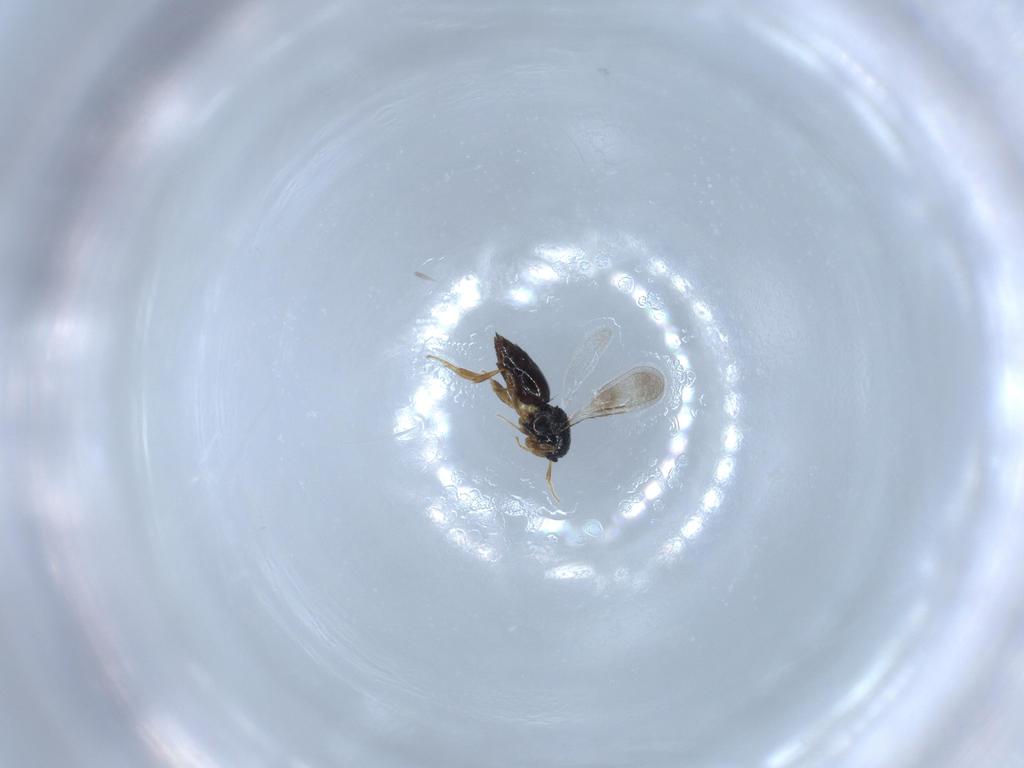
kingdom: Animalia
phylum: Arthropoda
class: Insecta
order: Hymenoptera
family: Ceraphronidae
